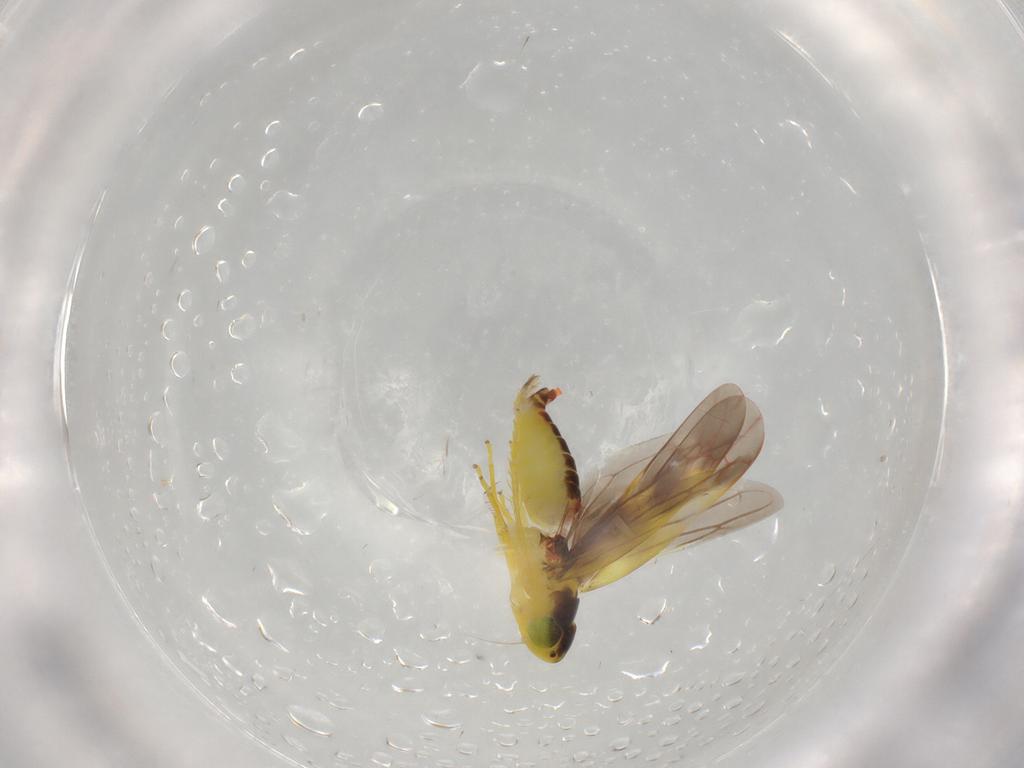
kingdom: Animalia
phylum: Arthropoda
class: Insecta
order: Hemiptera
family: Cicadellidae
